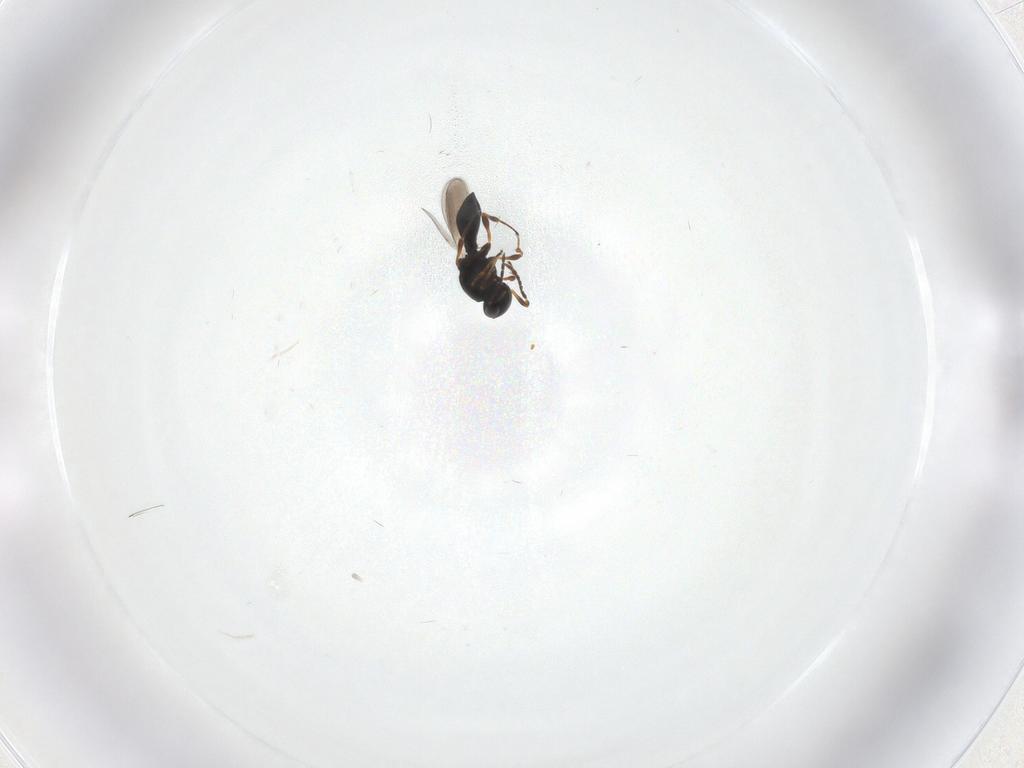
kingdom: Animalia
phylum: Arthropoda
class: Insecta
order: Hymenoptera
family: Platygastridae
